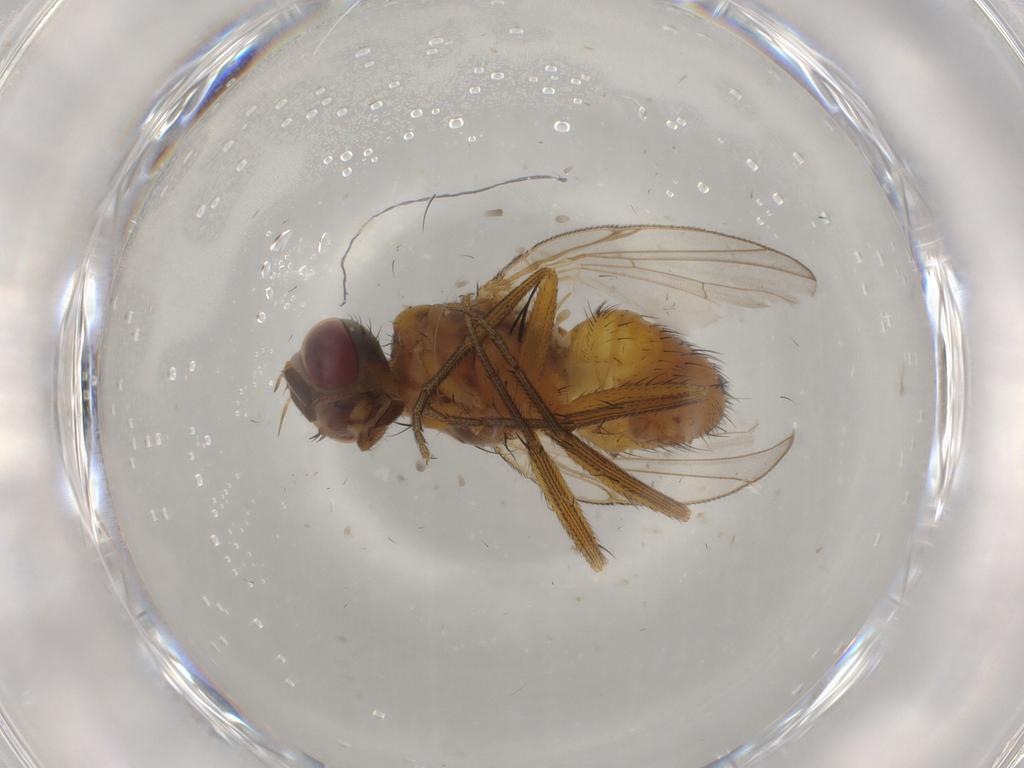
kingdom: Animalia
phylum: Arthropoda
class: Insecta
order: Diptera
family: Muscidae
